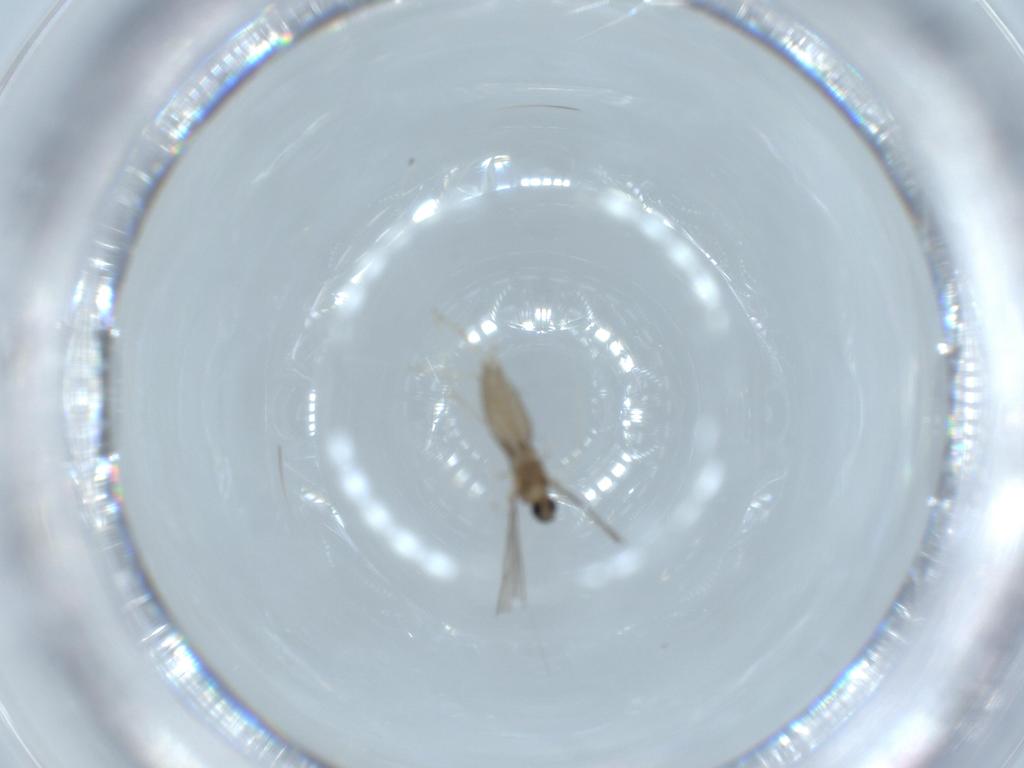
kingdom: Animalia
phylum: Arthropoda
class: Insecta
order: Diptera
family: Cecidomyiidae
